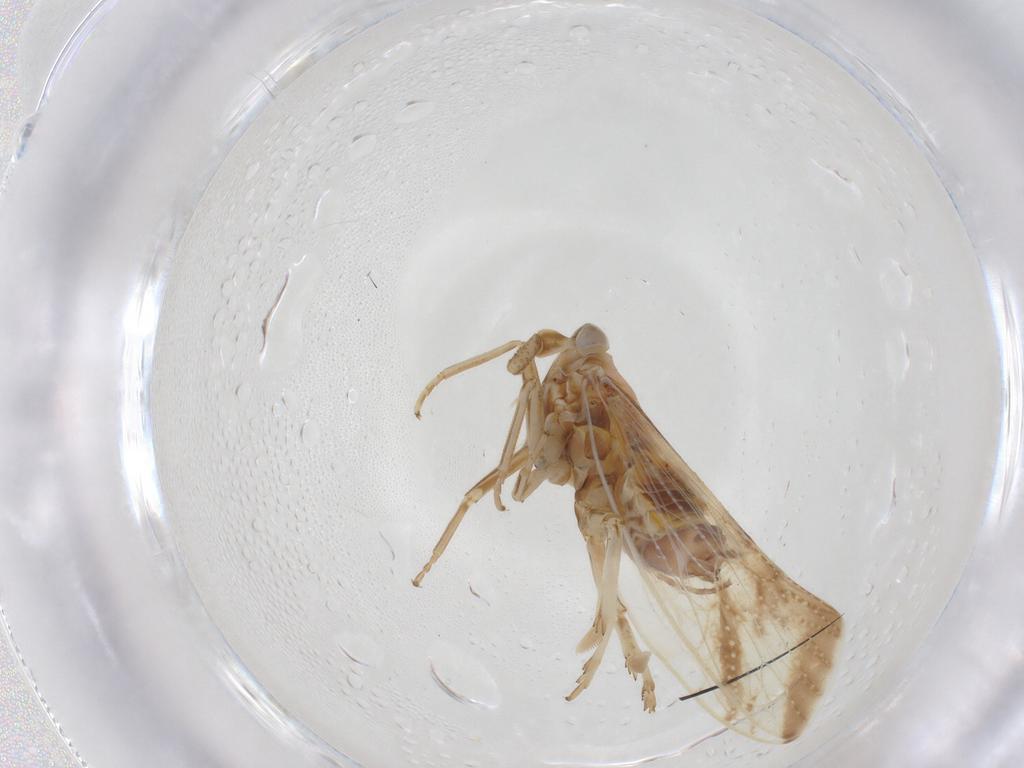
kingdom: Animalia
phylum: Arthropoda
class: Insecta
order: Hemiptera
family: Delphacidae
